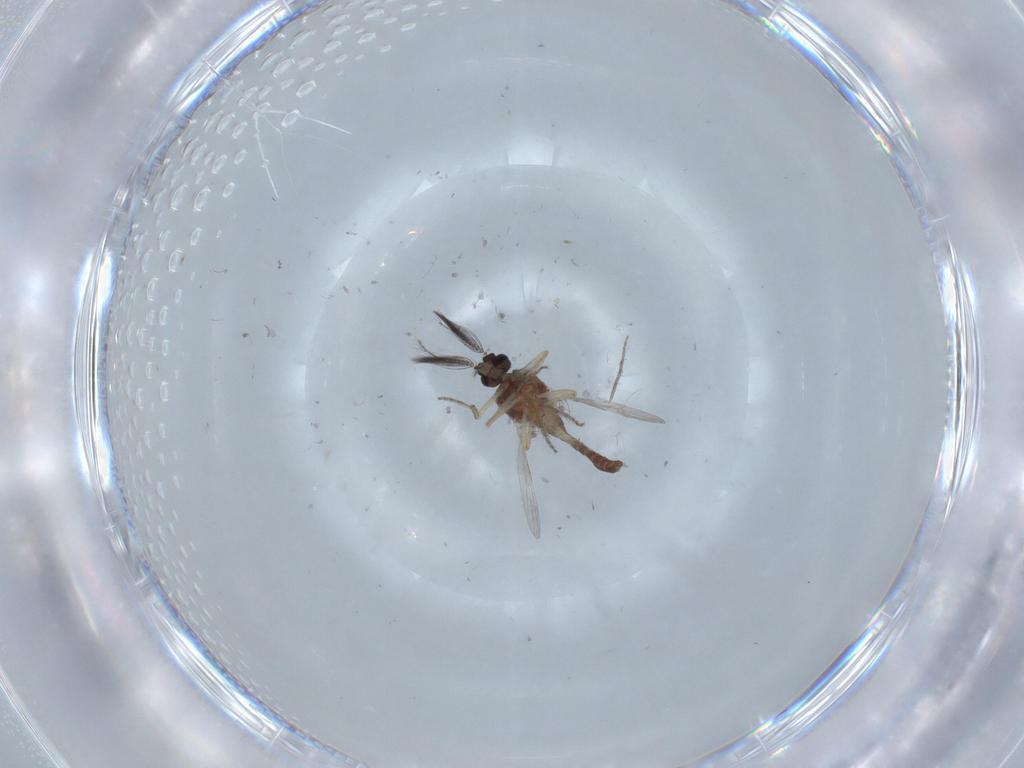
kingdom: Animalia
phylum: Arthropoda
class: Insecta
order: Diptera
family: Ceratopogonidae
